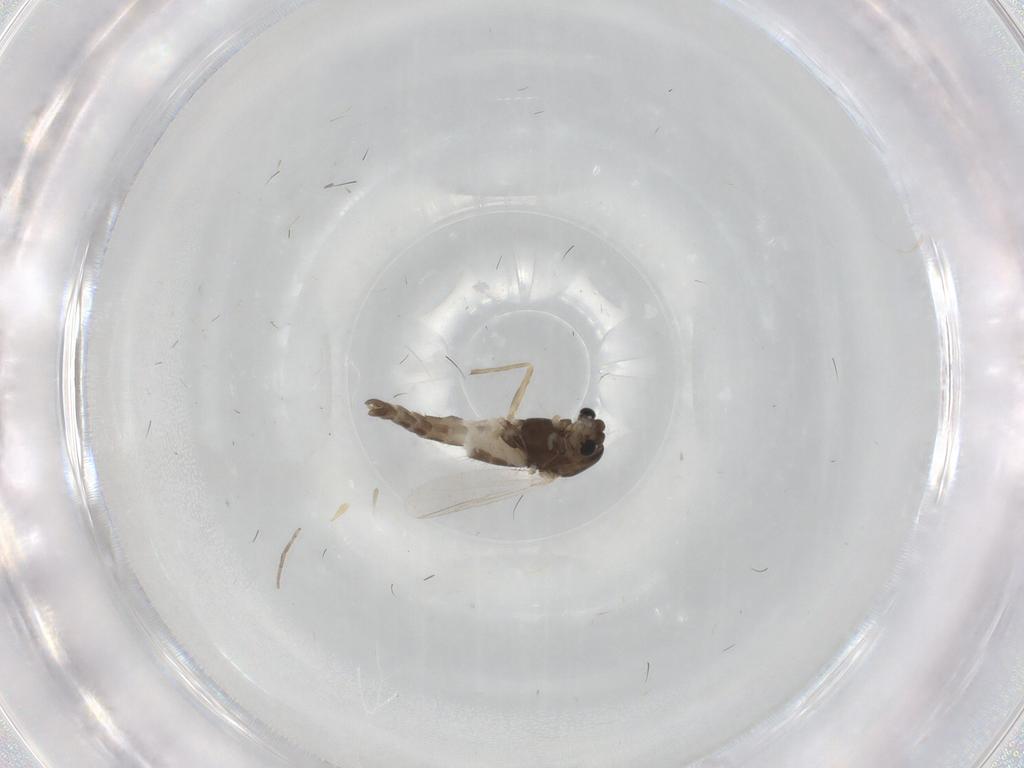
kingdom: Animalia
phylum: Arthropoda
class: Insecta
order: Diptera
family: Chironomidae
